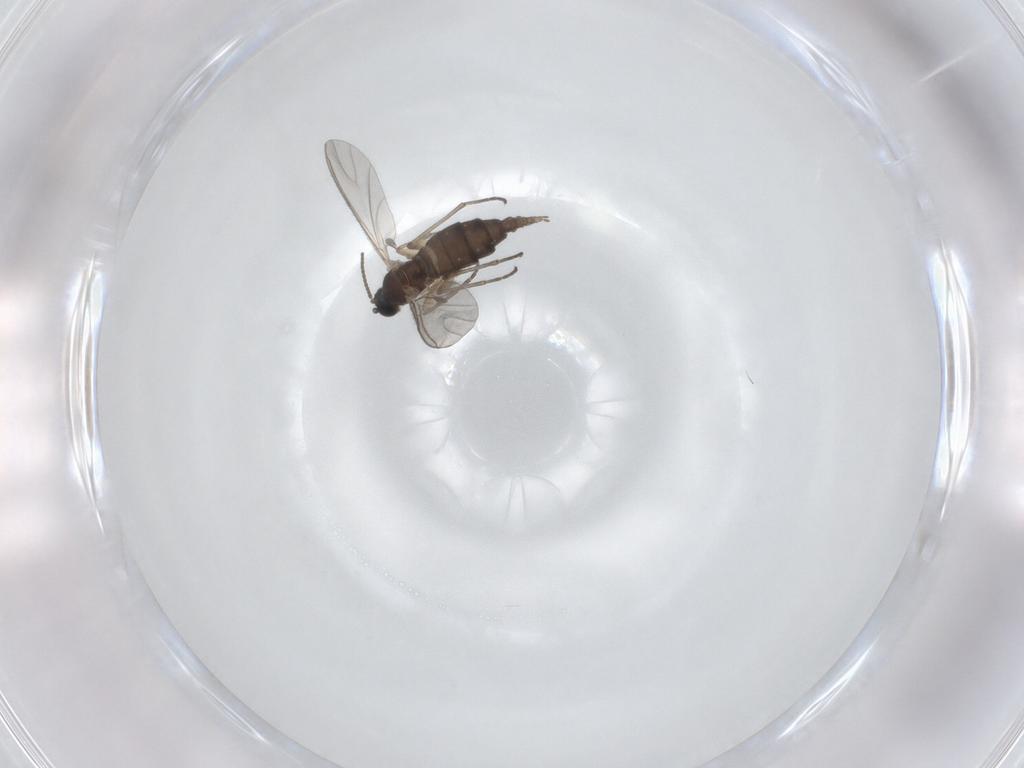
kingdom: Animalia
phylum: Arthropoda
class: Insecta
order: Diptera
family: Sciaridae
